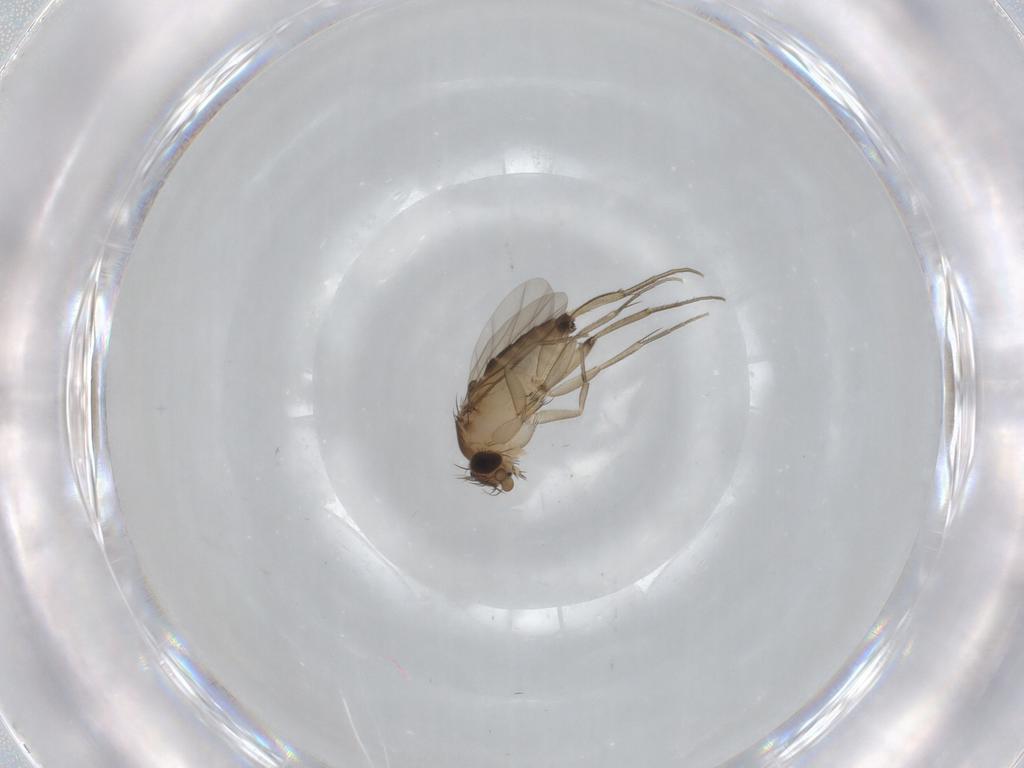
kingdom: Animalia
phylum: Arthropoda
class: Insecta
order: Diptera
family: Phoridae
